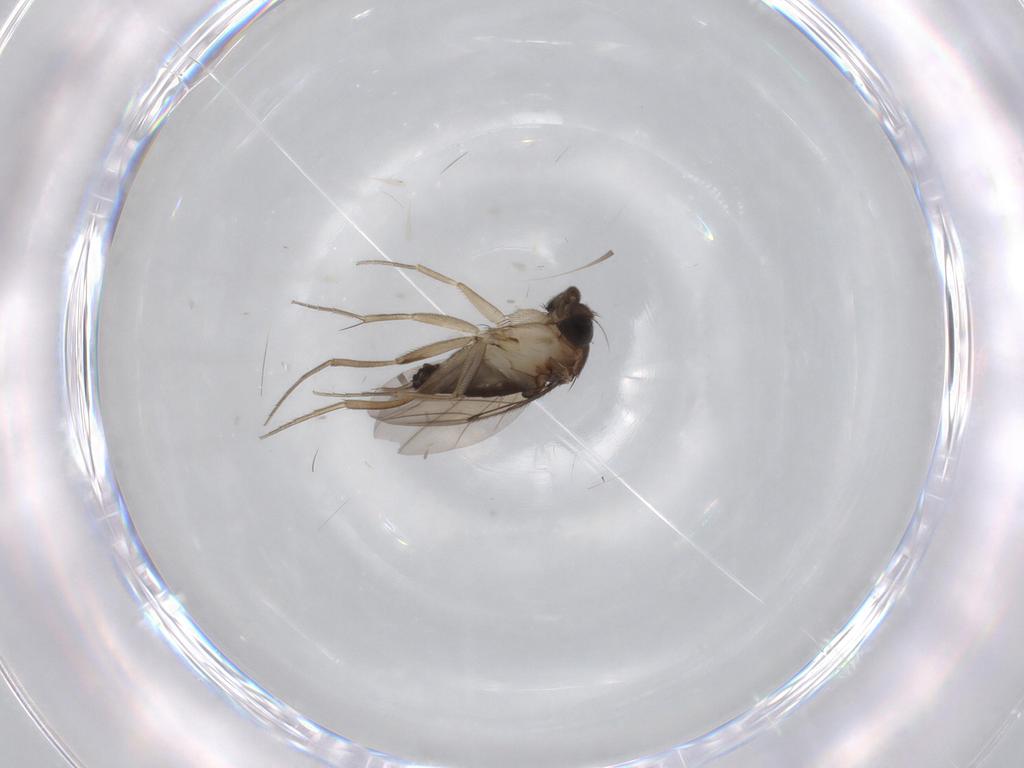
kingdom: Animalia
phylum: Arthropoda
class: Insecta
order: Diptera
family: Phoridae
